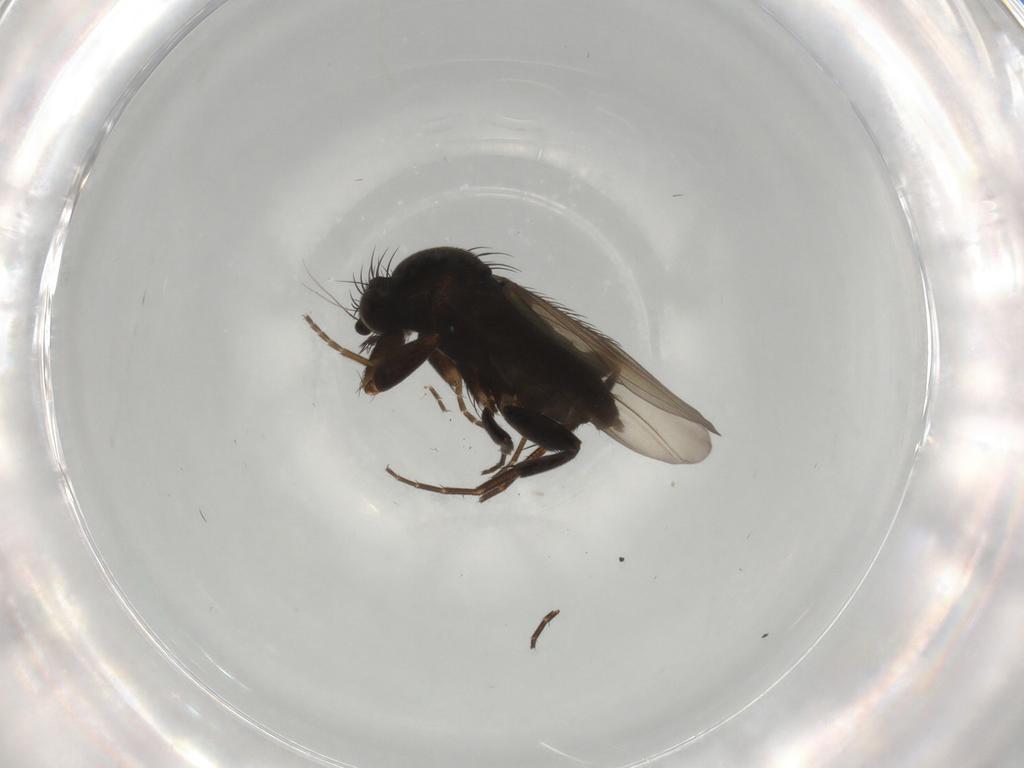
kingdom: Animalia
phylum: Arthropoda
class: Insecta
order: Diptera
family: Phoridae
